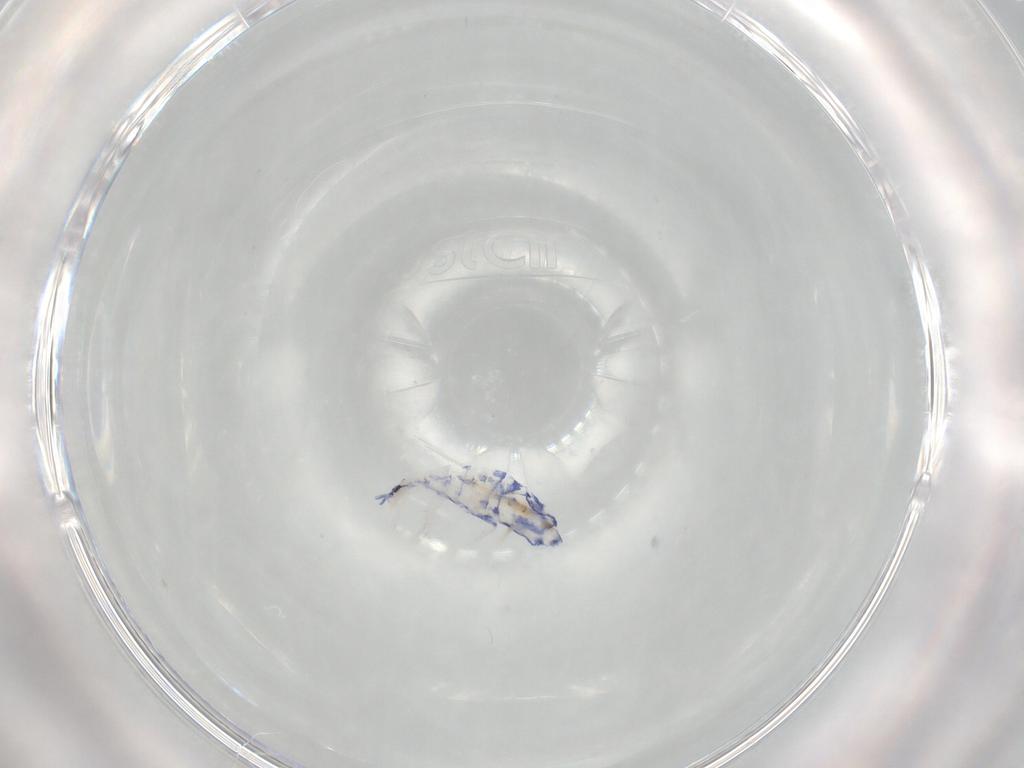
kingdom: Animalia
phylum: Arthropoda
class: Collembola
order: Entomobryomorpha
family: Entomobryidae
